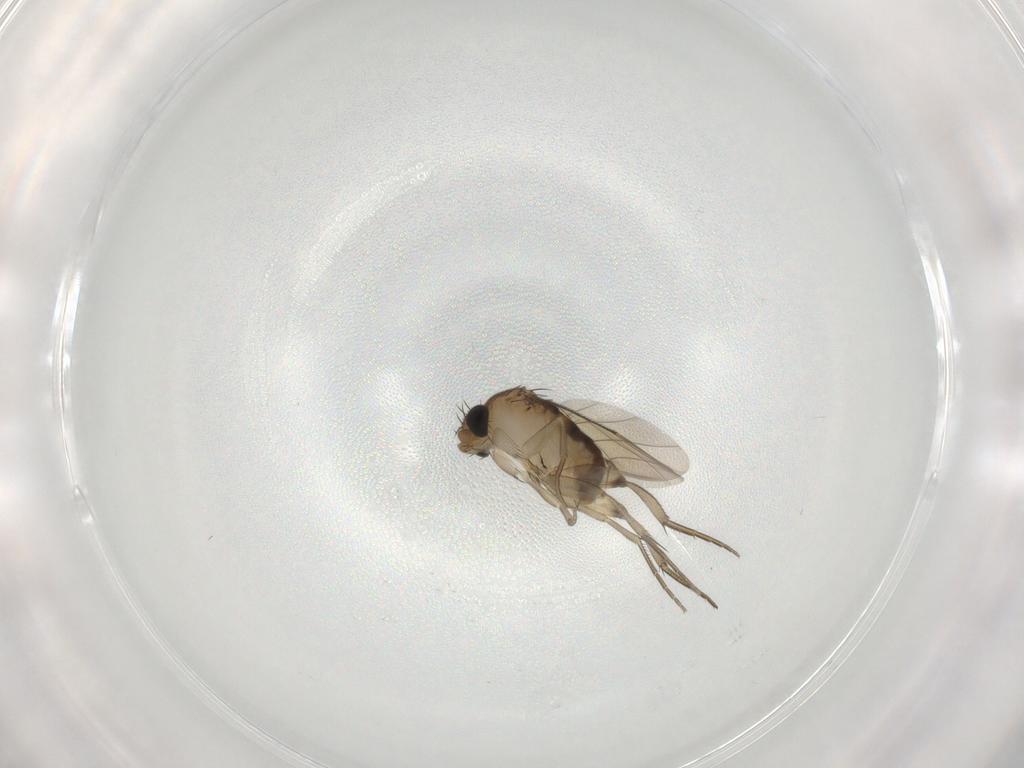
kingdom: Animalia
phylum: Arthropoda
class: Insecta
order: Diptera
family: Phoridae
